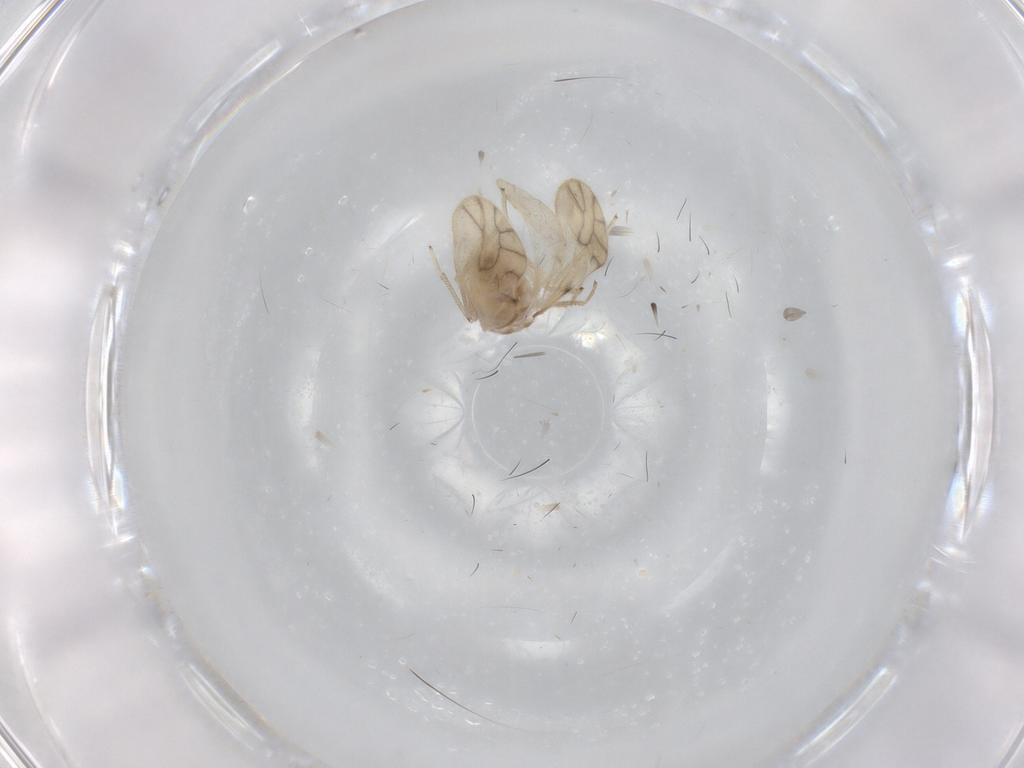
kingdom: Animalia
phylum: Arthropoda
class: Insecta
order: Psocodea
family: Caeciliusidae
